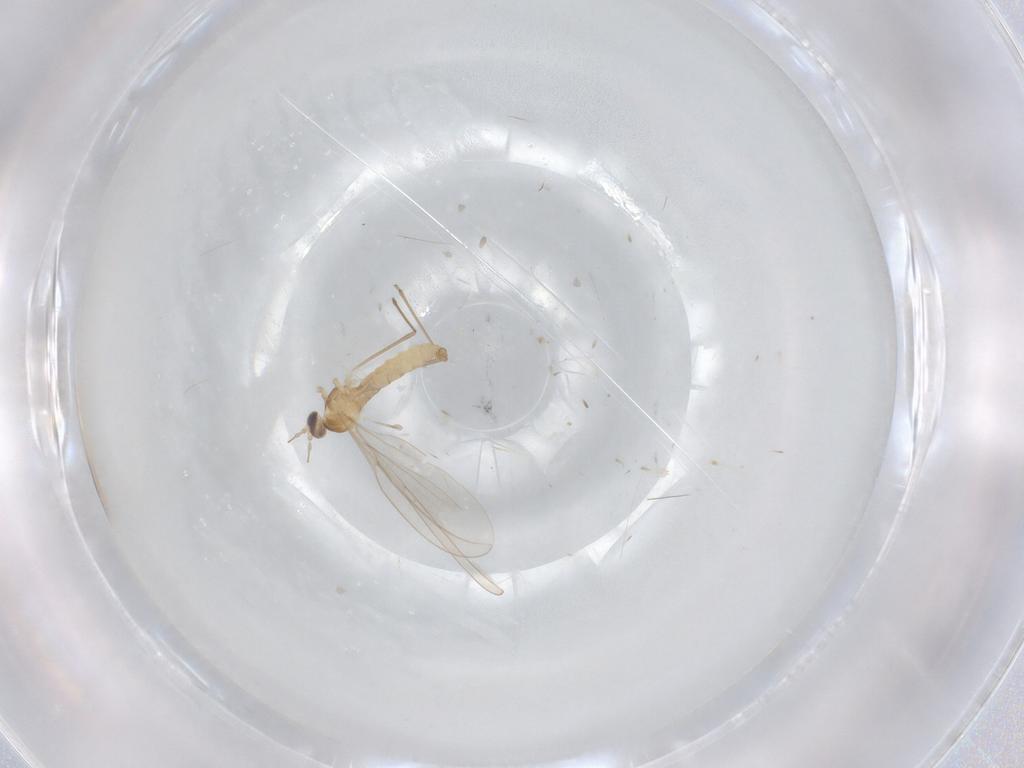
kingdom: Animalia
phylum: Arthropoda
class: Insecta
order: Diptera
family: Cecidomyiidae
